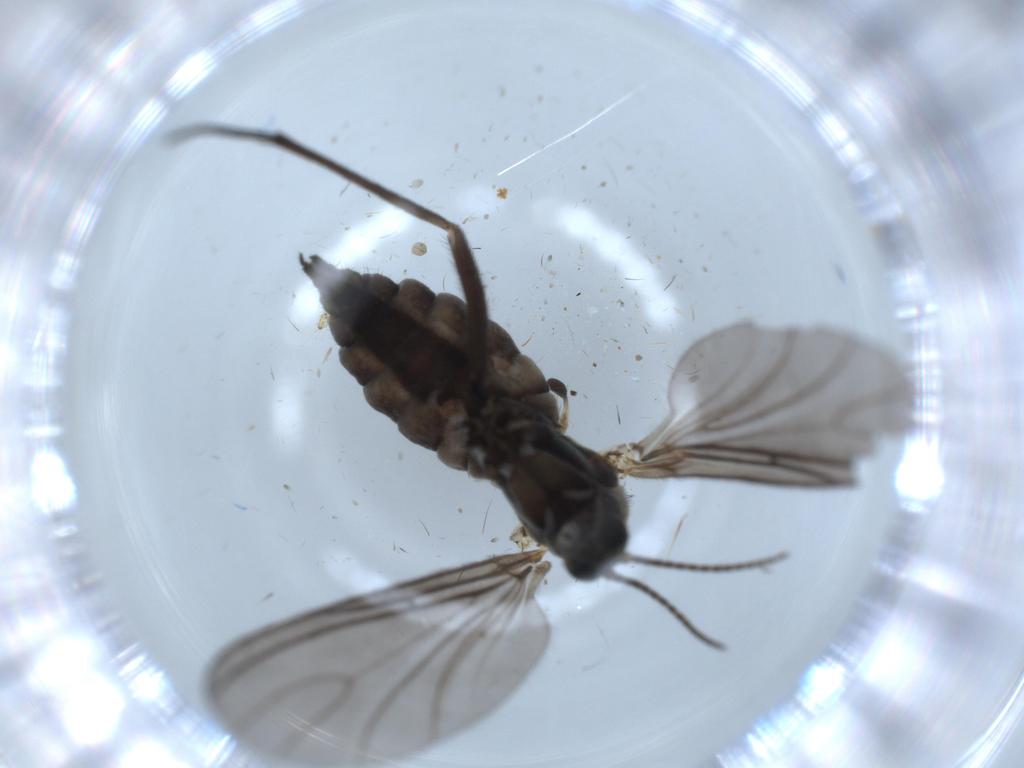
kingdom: Animalia
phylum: Arthropoda
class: Insecta
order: Diptera
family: Sciaridae
